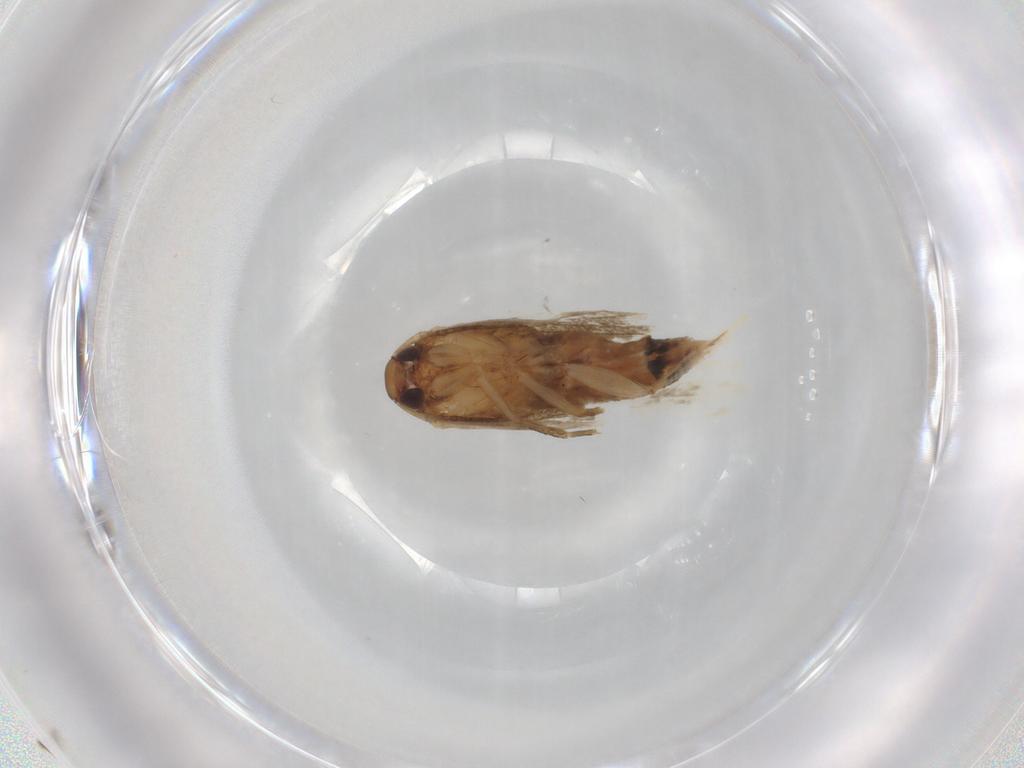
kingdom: Animalia
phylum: Arthropoda
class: Insecta
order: Lepidoptera
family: Cosmopterigidae
